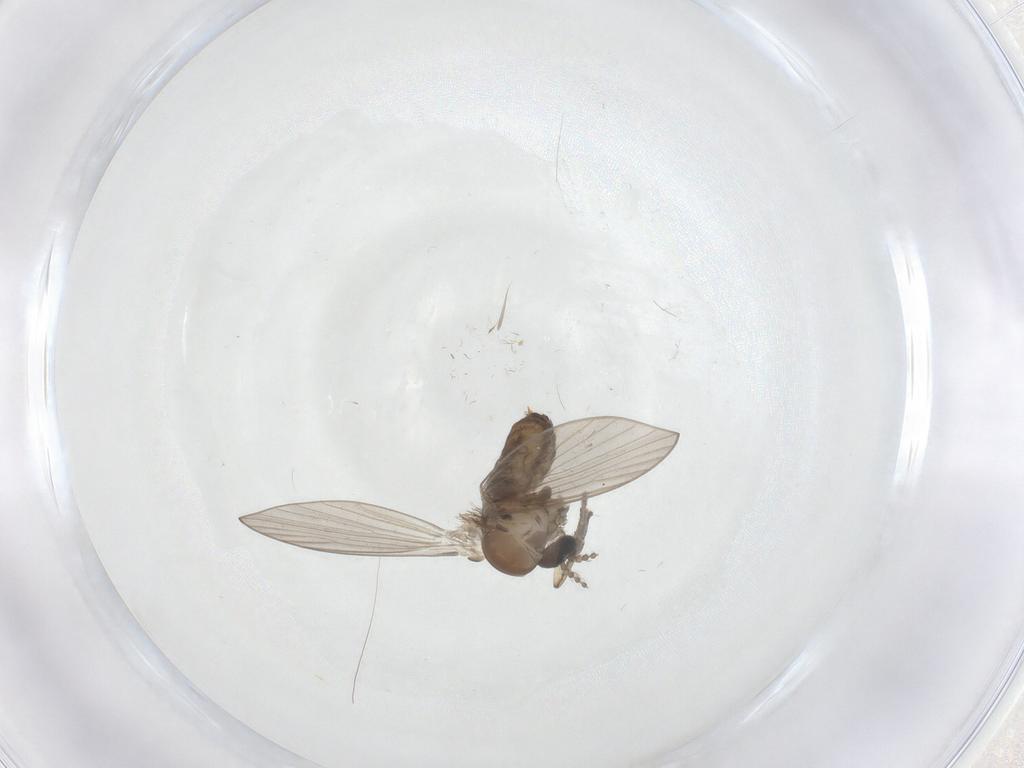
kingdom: Animalia
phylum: Arthropoda
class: Insecta
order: Diptera
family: Psychodidae
